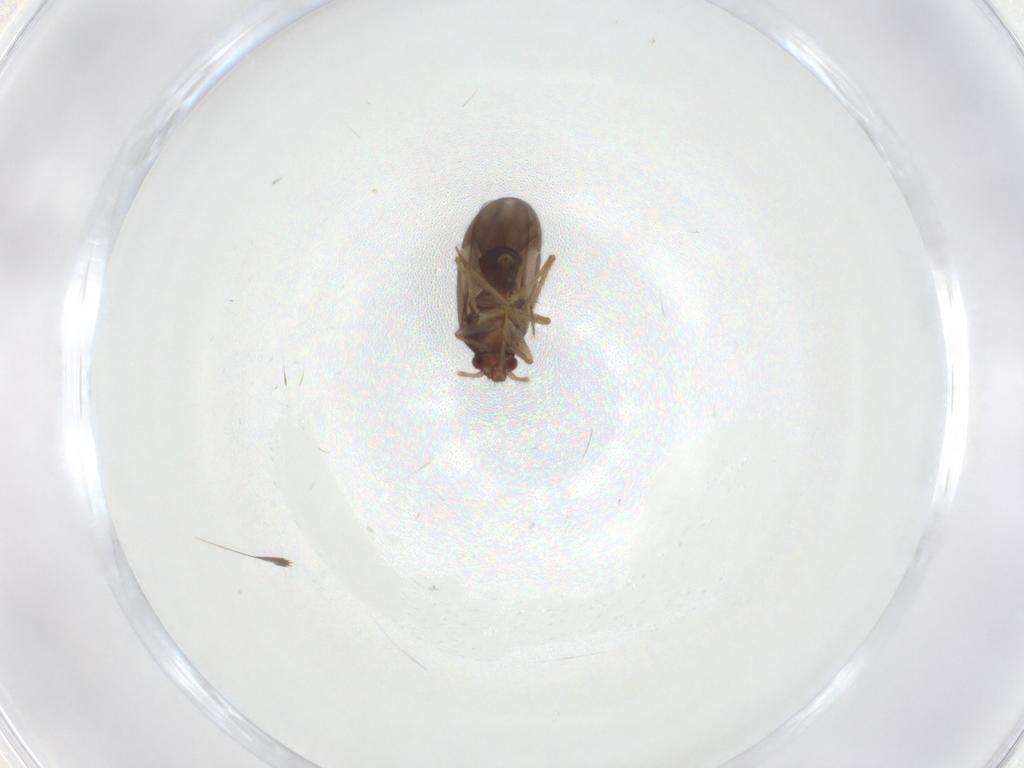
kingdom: Animalia
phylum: Arthropoda
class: Insecta
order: Hemiptera
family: Ceratocombidae
